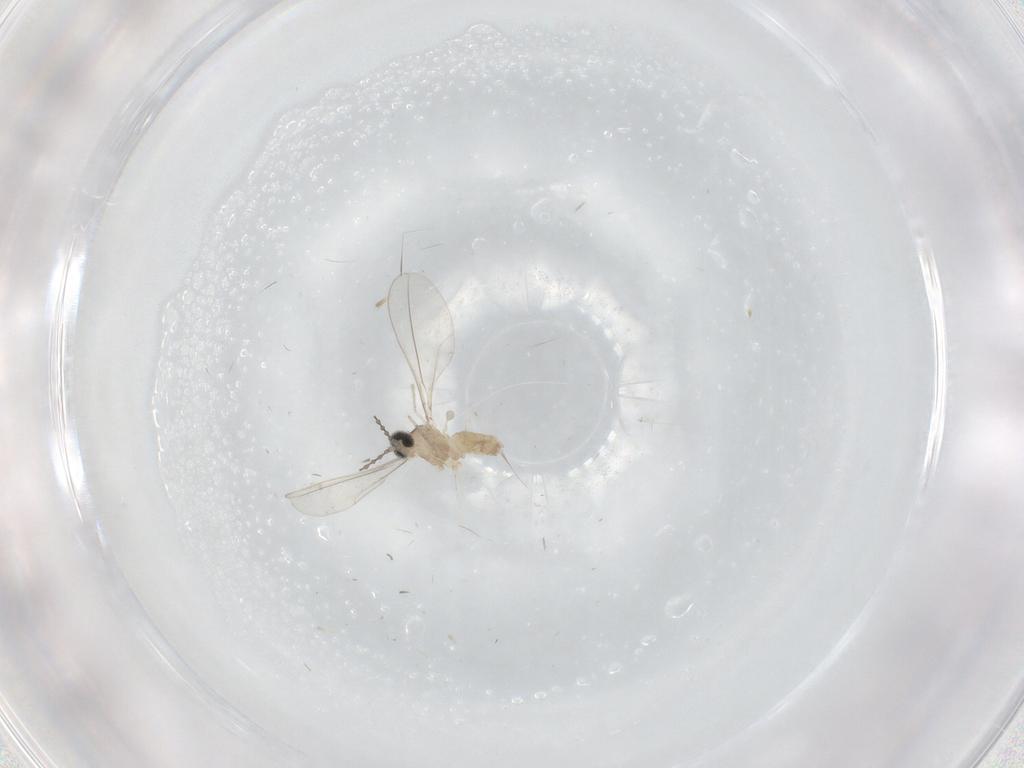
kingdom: Animalia
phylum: Arthropoda
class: Insecta
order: Diptera
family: Cecidomyiidae
